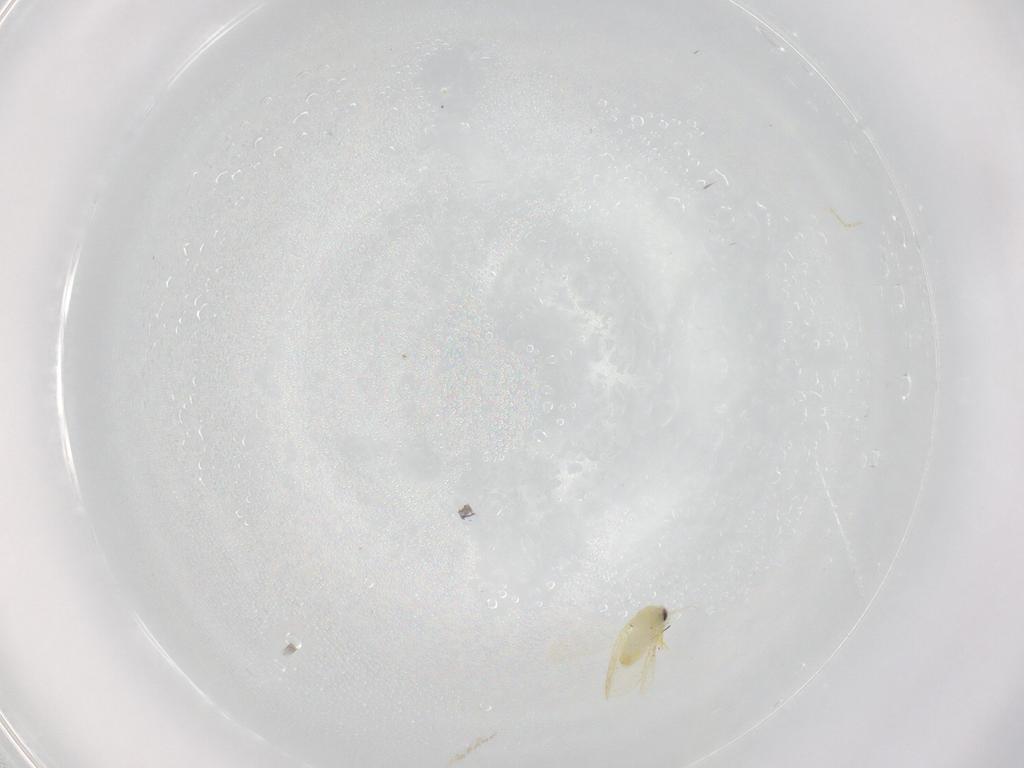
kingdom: Animalia
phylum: Arthropoda
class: Insecta
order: Hemiptera
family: Aleyrodidae
